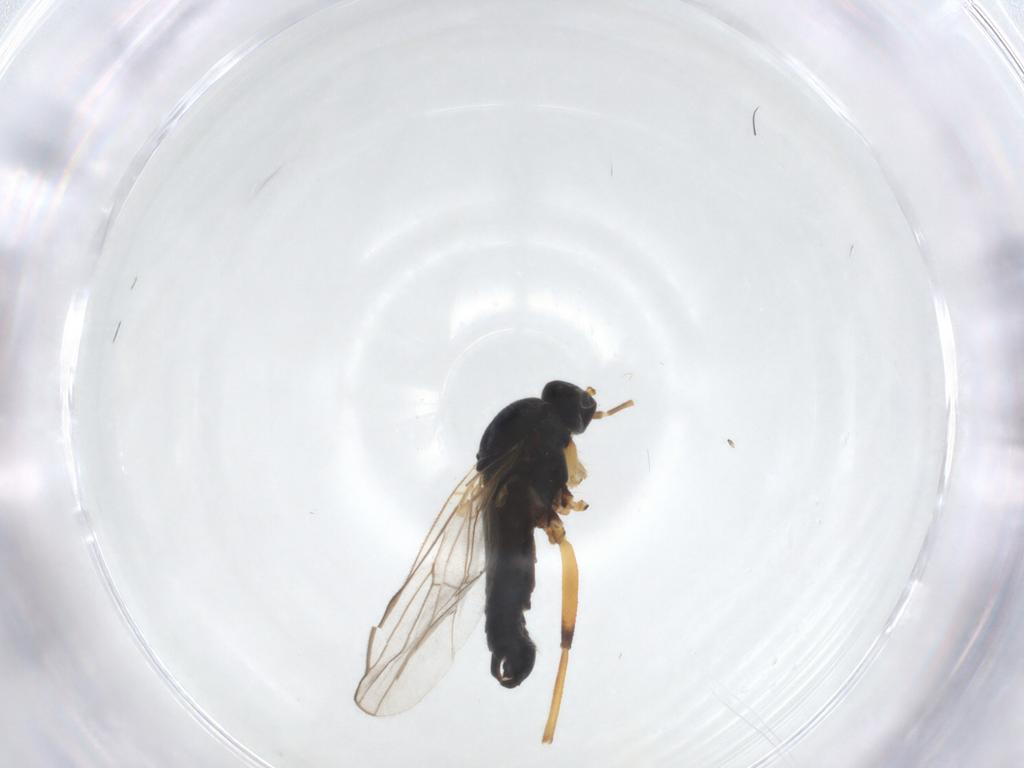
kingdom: Animalia
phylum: Arthropoda
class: Insecta
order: Diptera
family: Hybotidae
